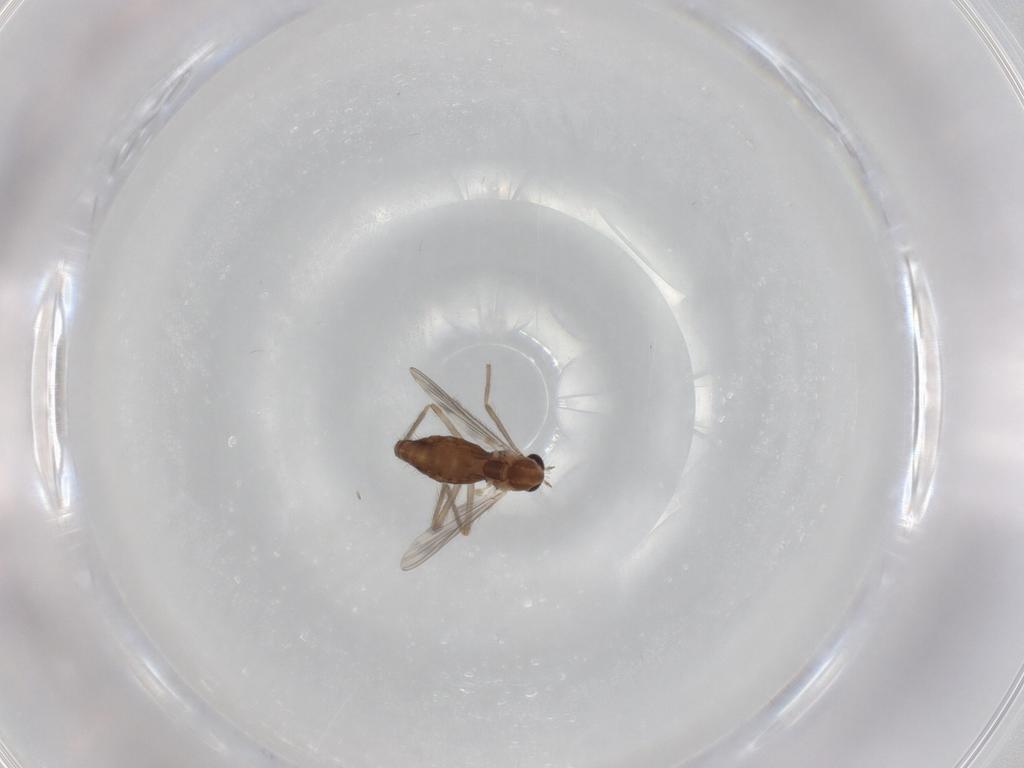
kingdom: Animalia
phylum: Arthropoda
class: Insecta
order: Diptera
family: Chironomidae
